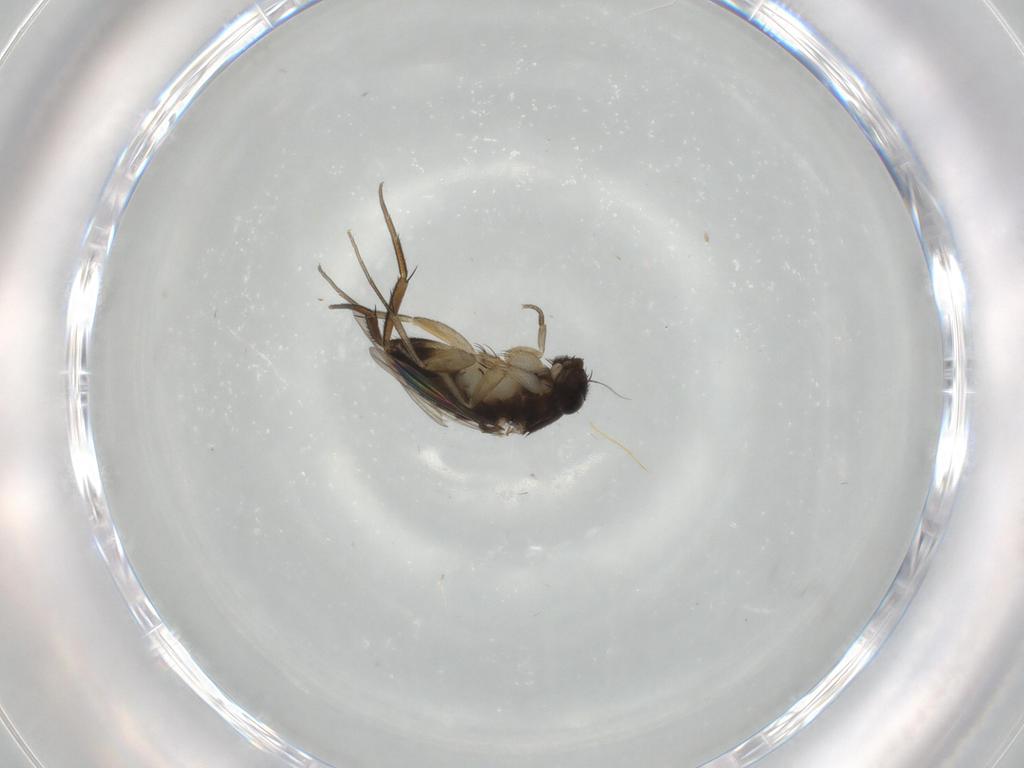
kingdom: Animalia
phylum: Arthropoda
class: Insecta
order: Diptera
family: Phoridae
